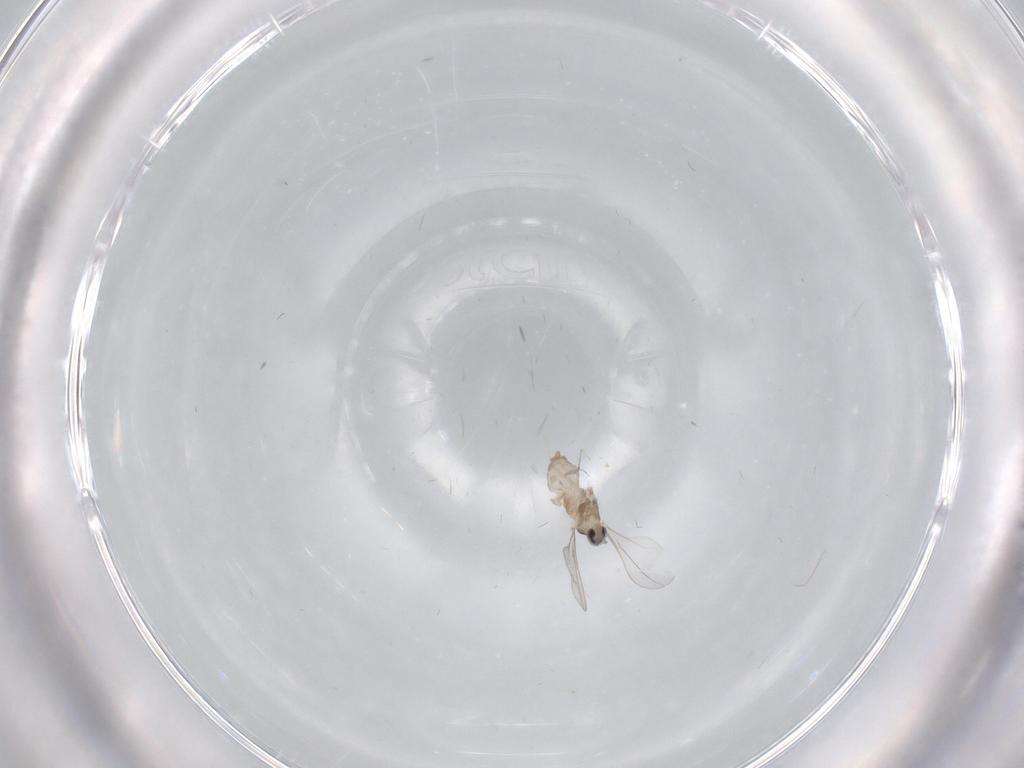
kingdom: Animalia
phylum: Arthropoda
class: Insecta
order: Diptera
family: Cecidomyiidae
